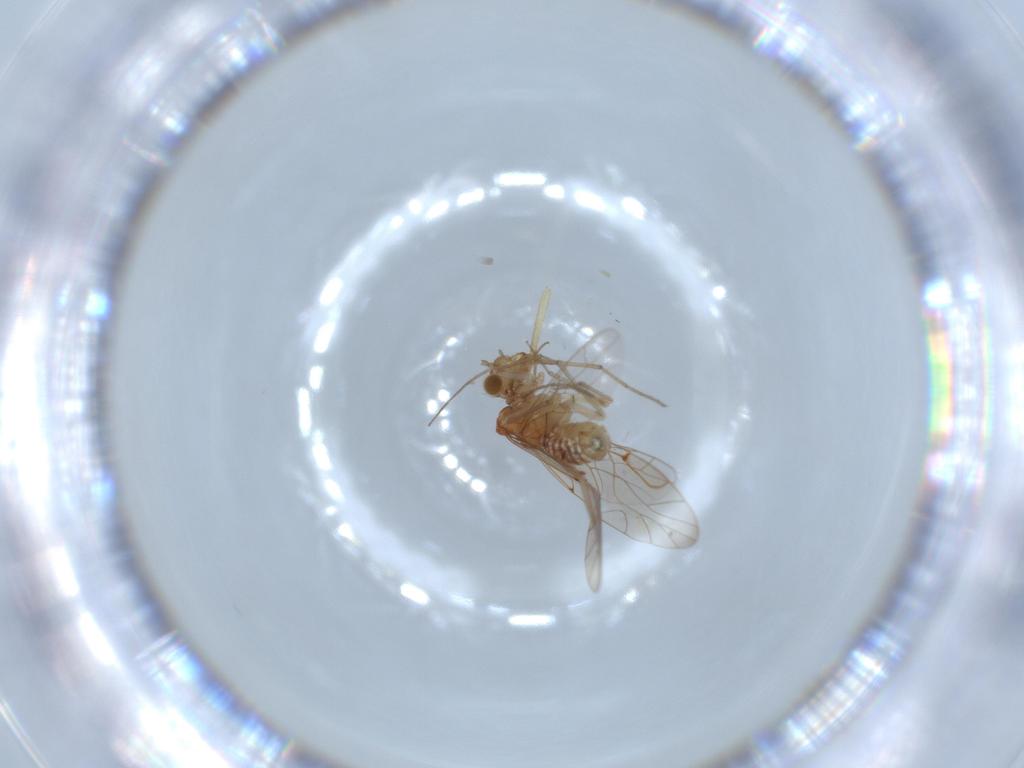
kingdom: Animalia
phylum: Arthropoda
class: Insecta
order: Psocodea
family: Lachesillidae
